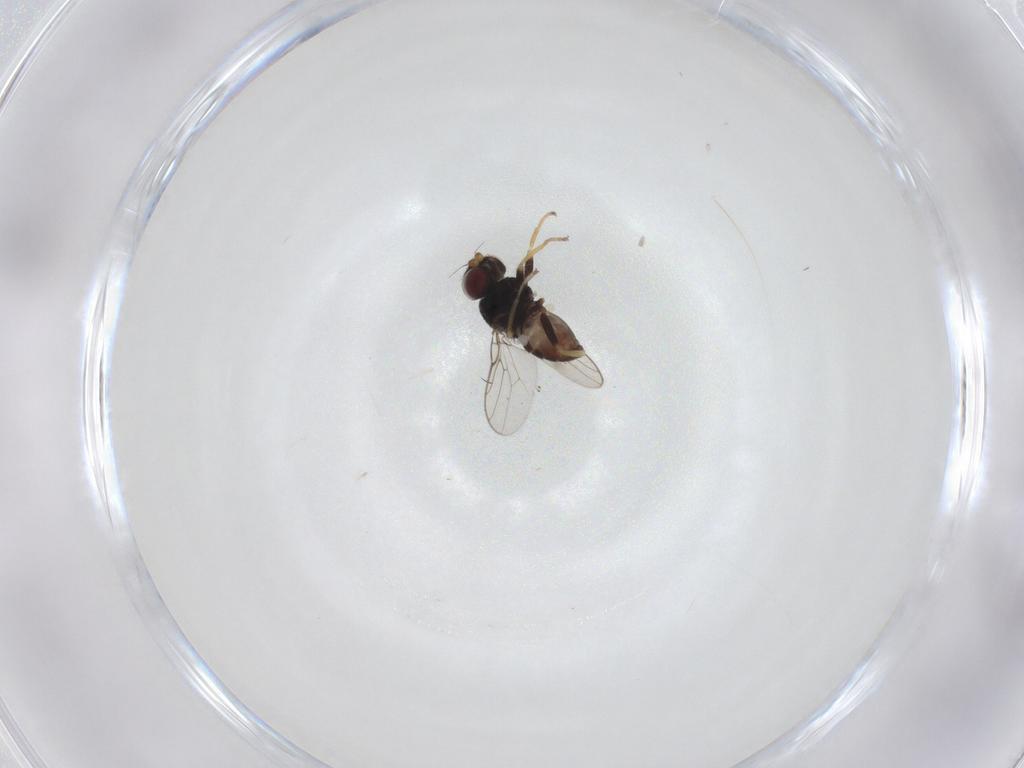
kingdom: Animalia
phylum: Arthropoda
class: Insecta
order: Diptera
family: Chloropidae
